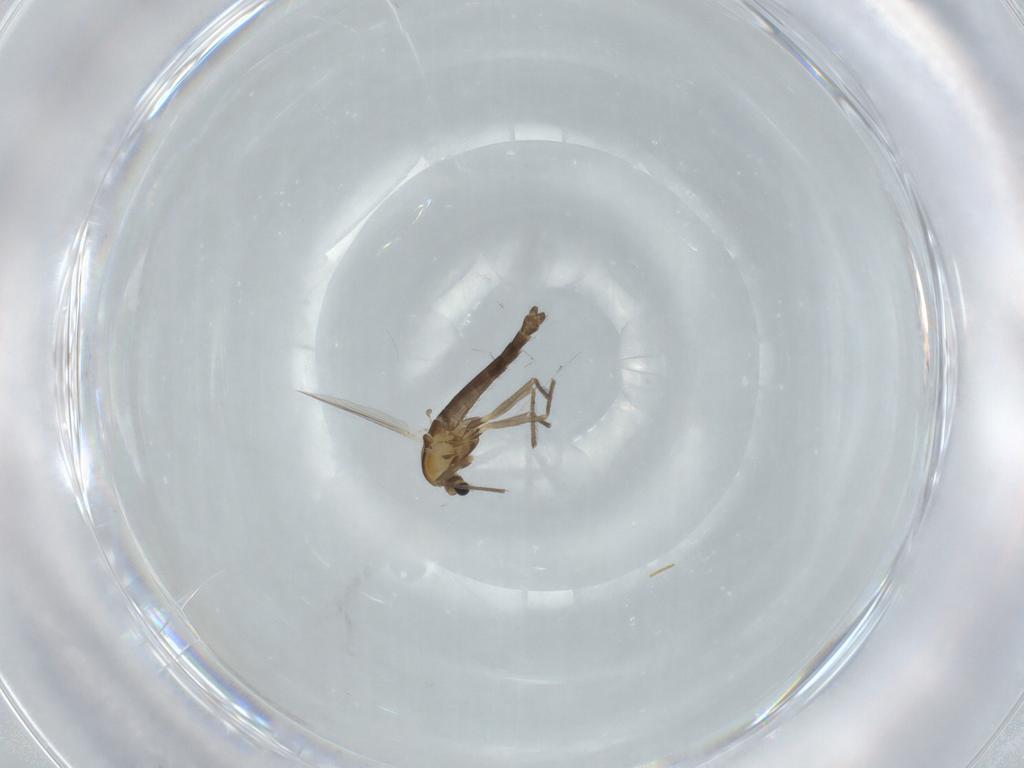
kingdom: Animalia
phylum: Arthropoda
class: Insecta
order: Diptera
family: Chironomidae
